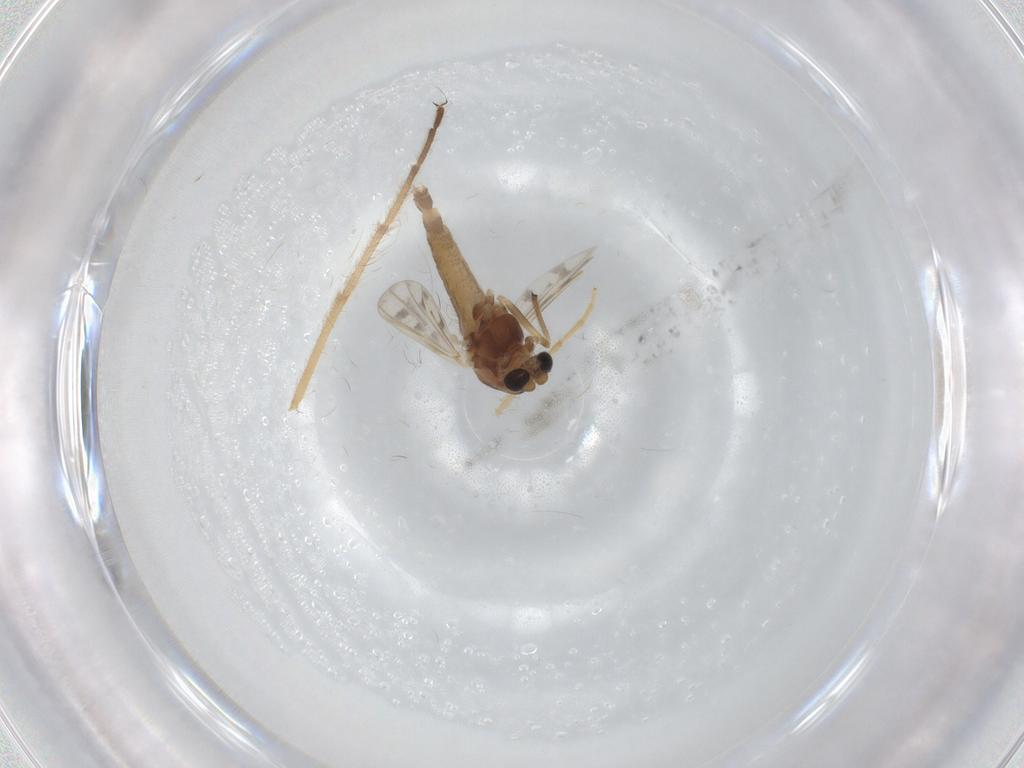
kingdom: Animalia
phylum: Arthropoda
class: Insecta
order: Diptera
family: Chironomidae
